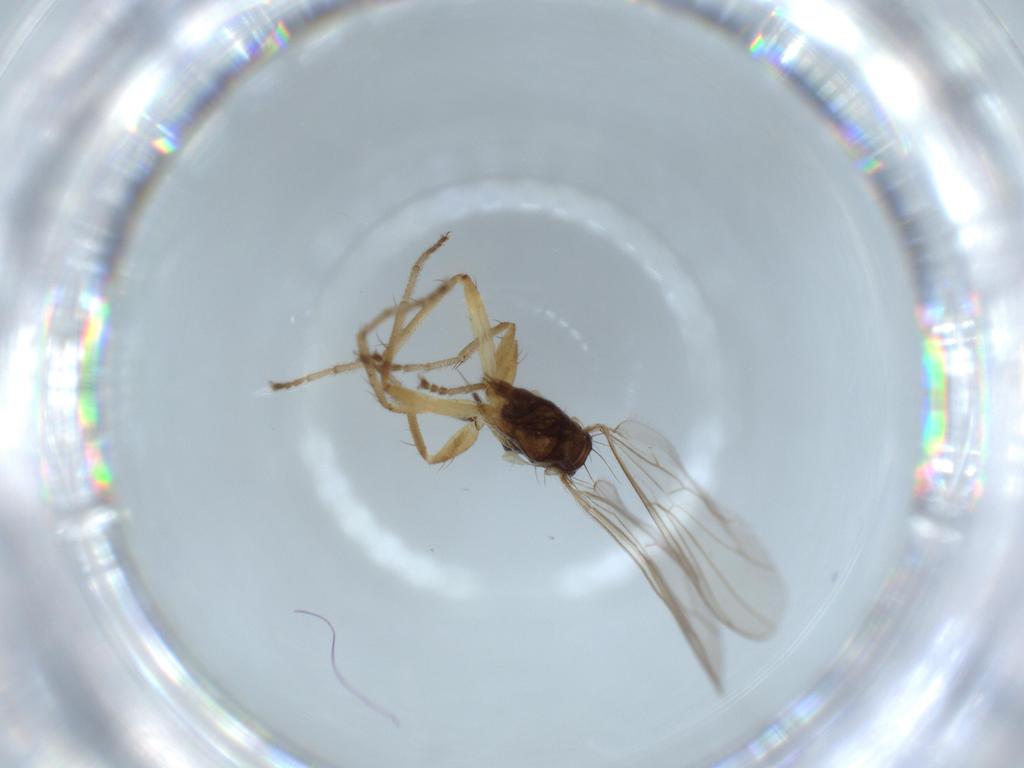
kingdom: Animalia
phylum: Arthropoda
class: Insecta
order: Diptera
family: Hybotidae
